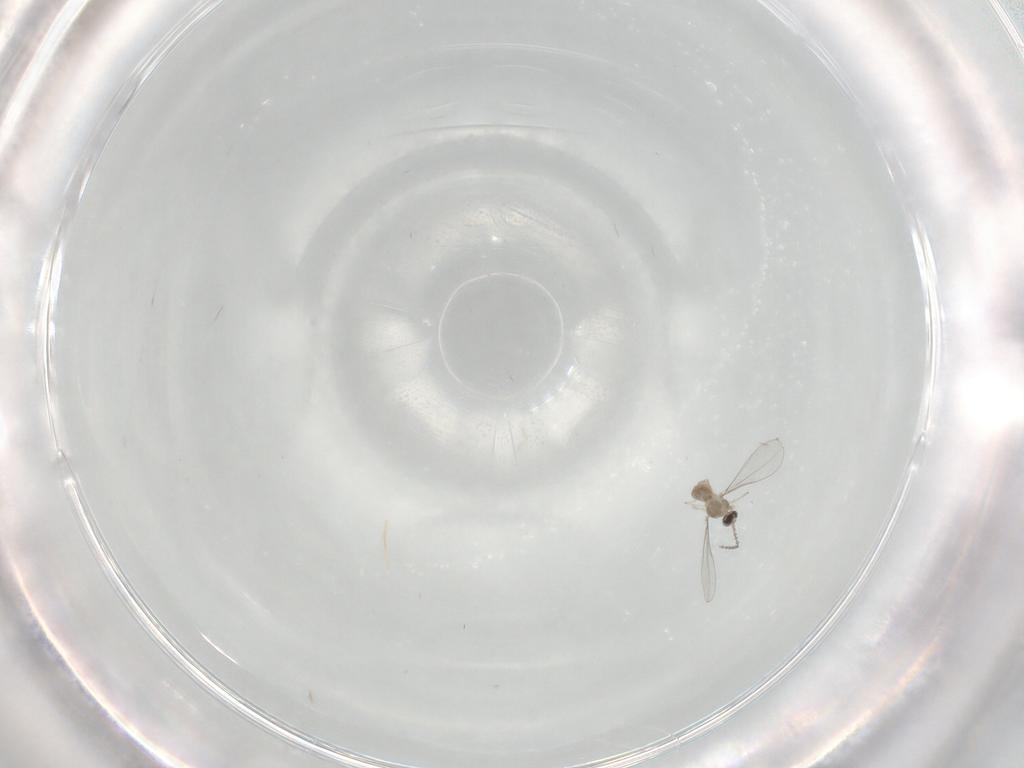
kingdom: Animalia
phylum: Arthropoda
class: Insecta
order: Diptera
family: Cecidomyiidae
